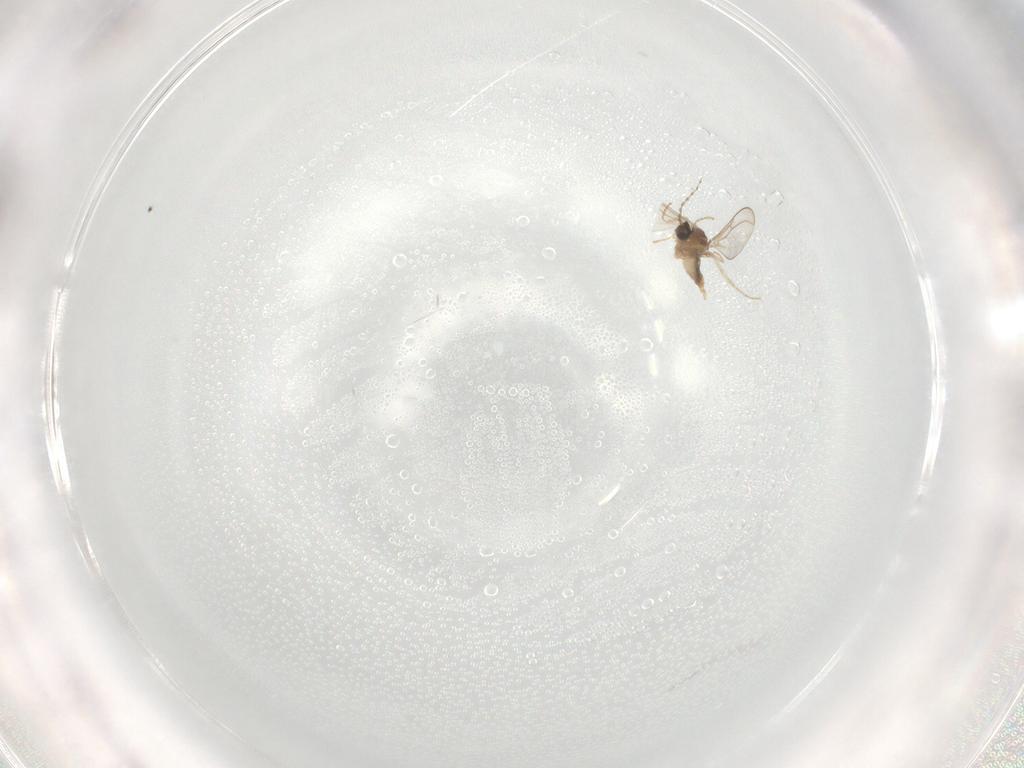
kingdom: Animalia
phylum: Arthropoda
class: Insecta
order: Diptera
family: Cecidomyiidae
